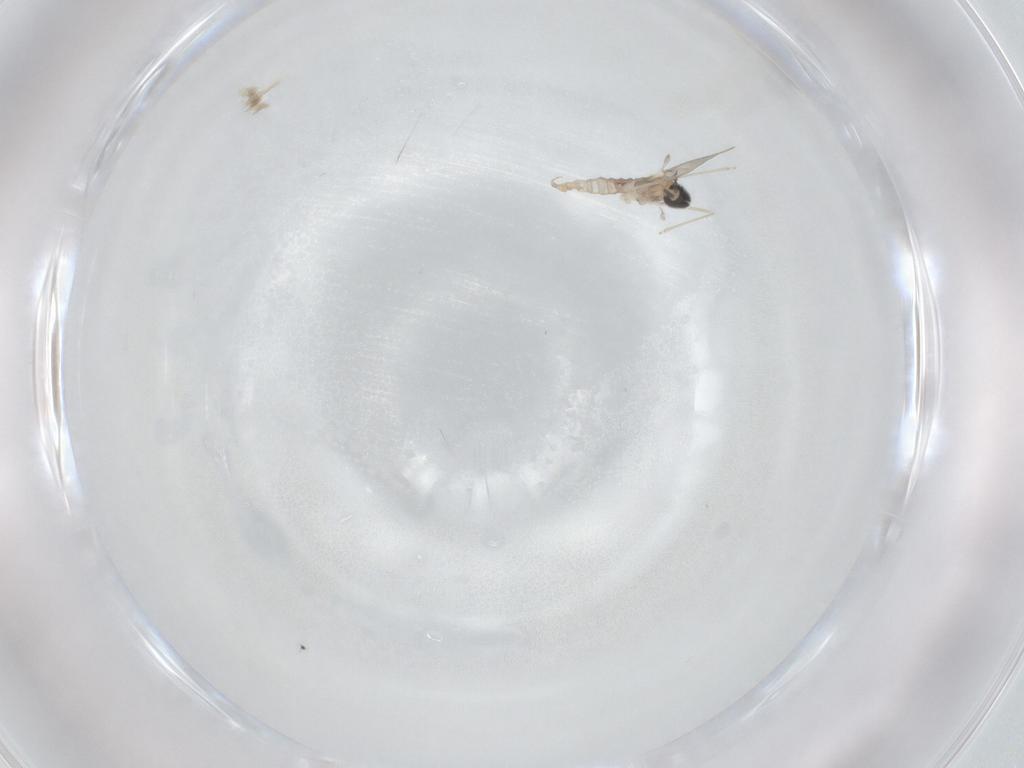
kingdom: Animalia
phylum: Arthropoda
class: Insecta
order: Diptera
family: Cecidomyiidae
